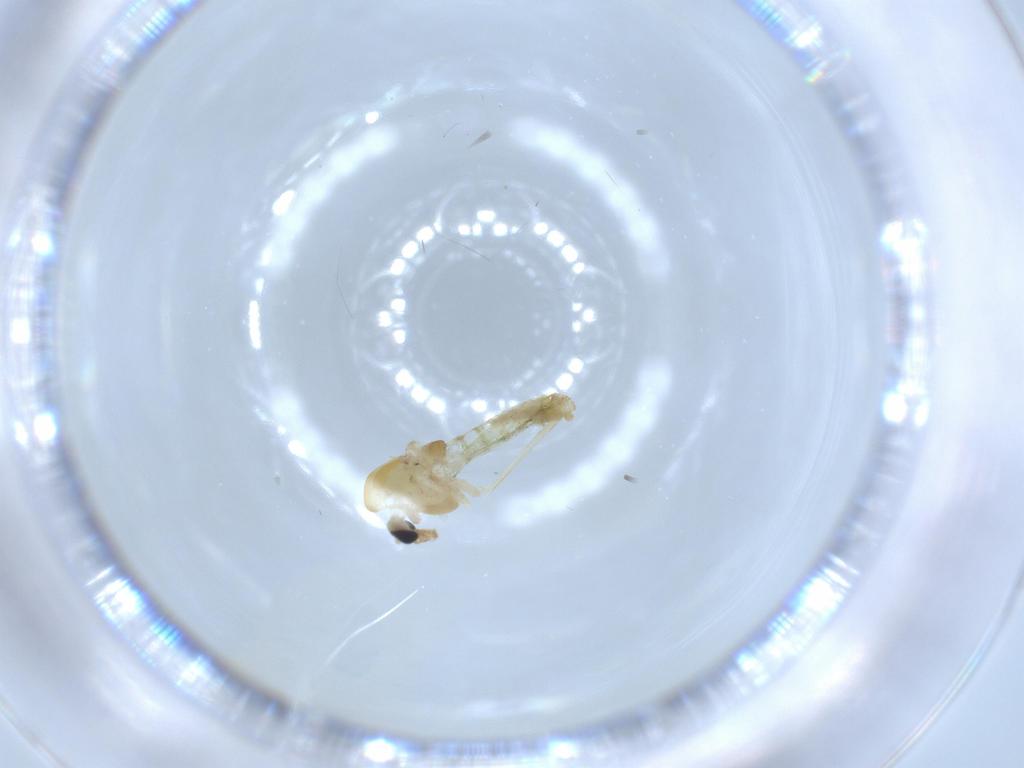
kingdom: Animalia
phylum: Arthropoda
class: Insecta
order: Diptera
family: Chironomidae
